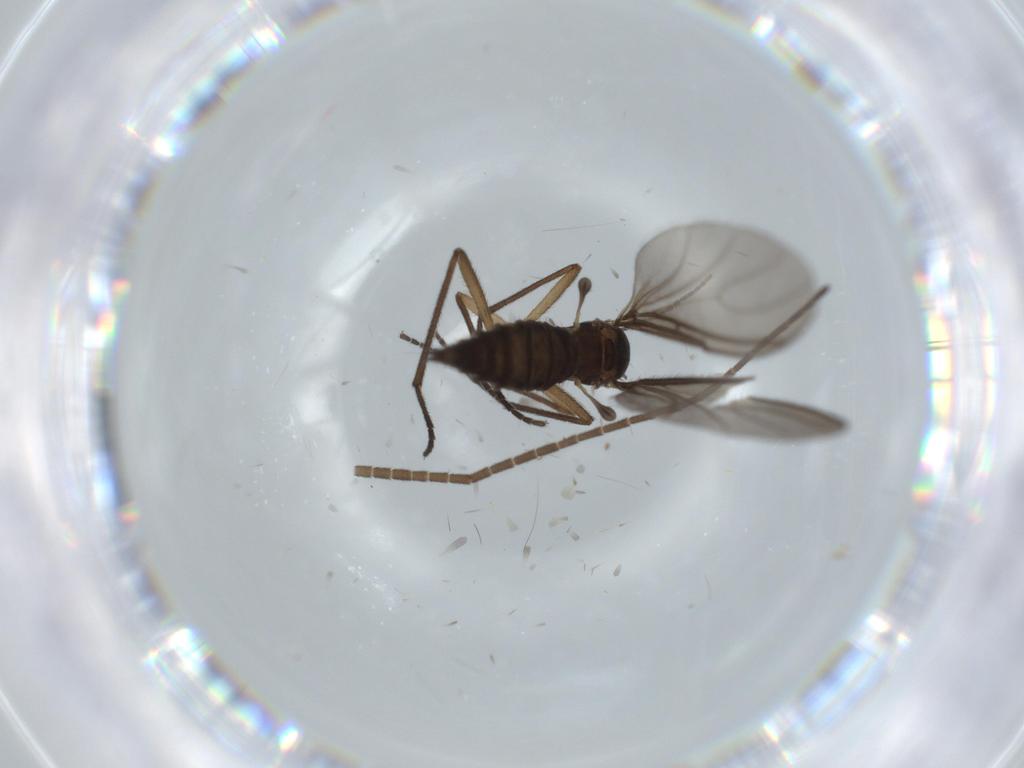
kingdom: Animalia
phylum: Arthropoda
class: Insecta
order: Diptera
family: Milichiidae
